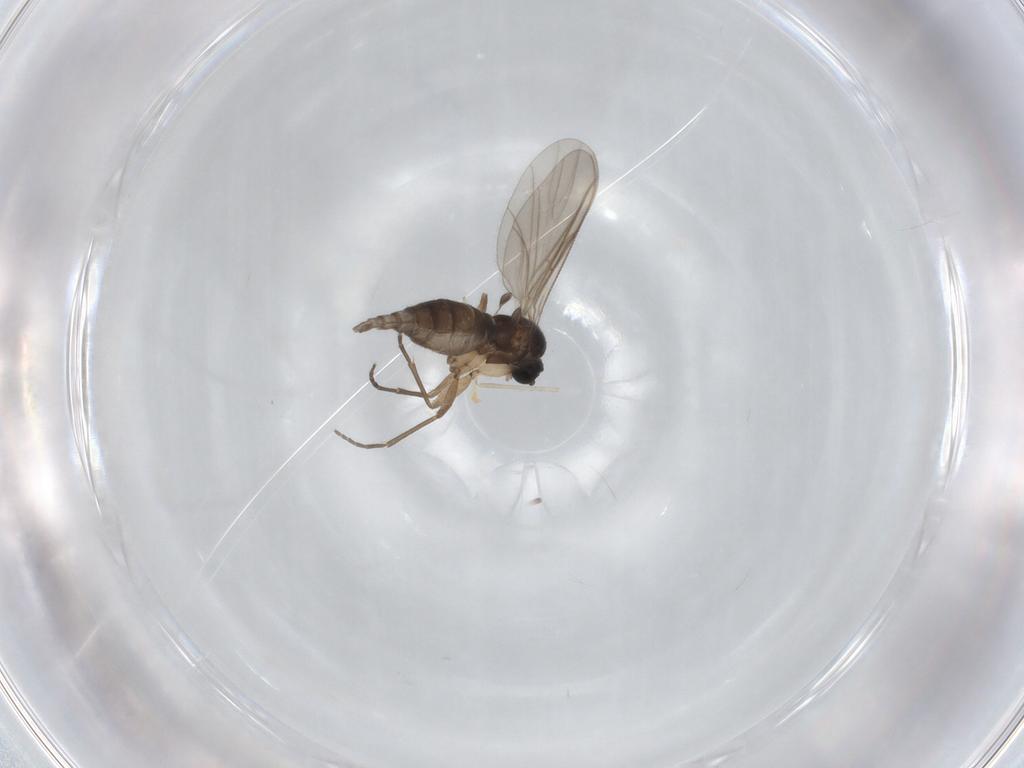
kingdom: Animalia
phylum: Arthropoda
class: Insecta
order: Diptera
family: Sciaridae
